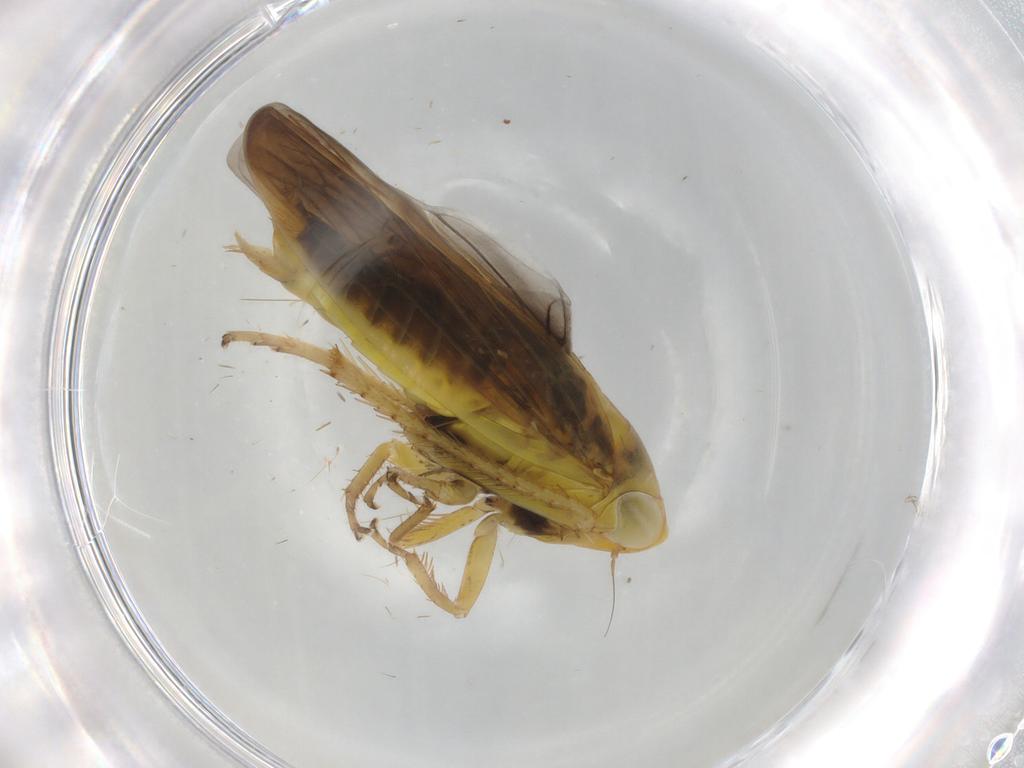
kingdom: Animalia
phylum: Arthropoda
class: Insecta
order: Hemiptera
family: Cicadellidae
